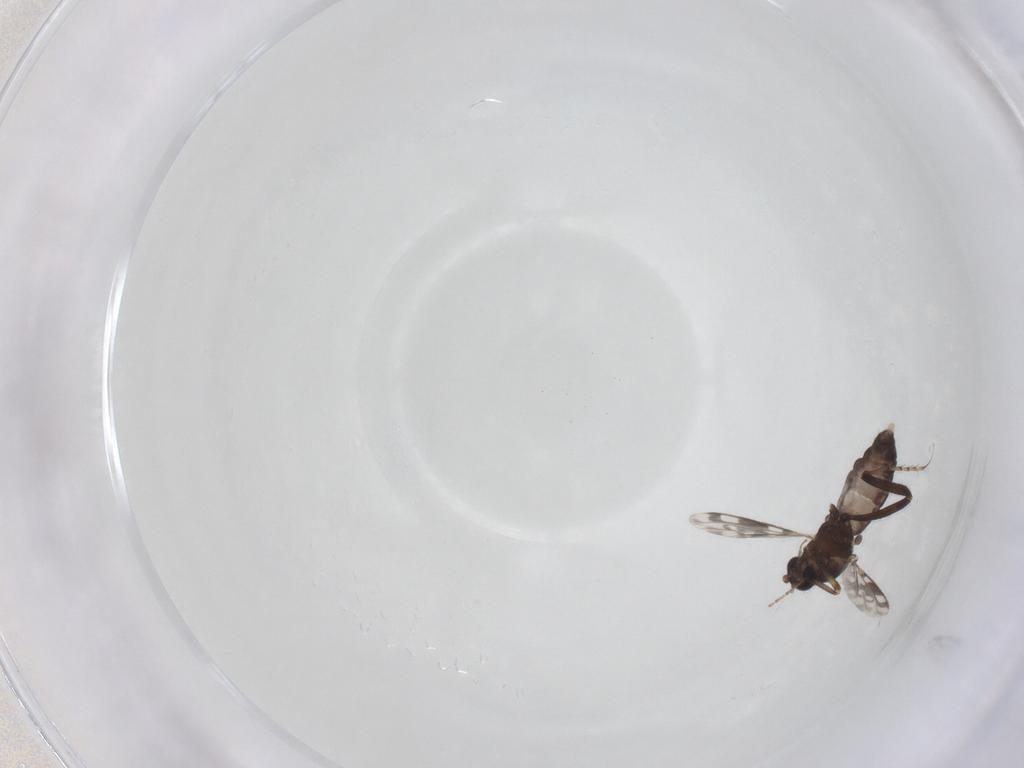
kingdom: Animalia
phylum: Arthropoda
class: Insecta
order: Diptera
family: Ceratopogonidae
